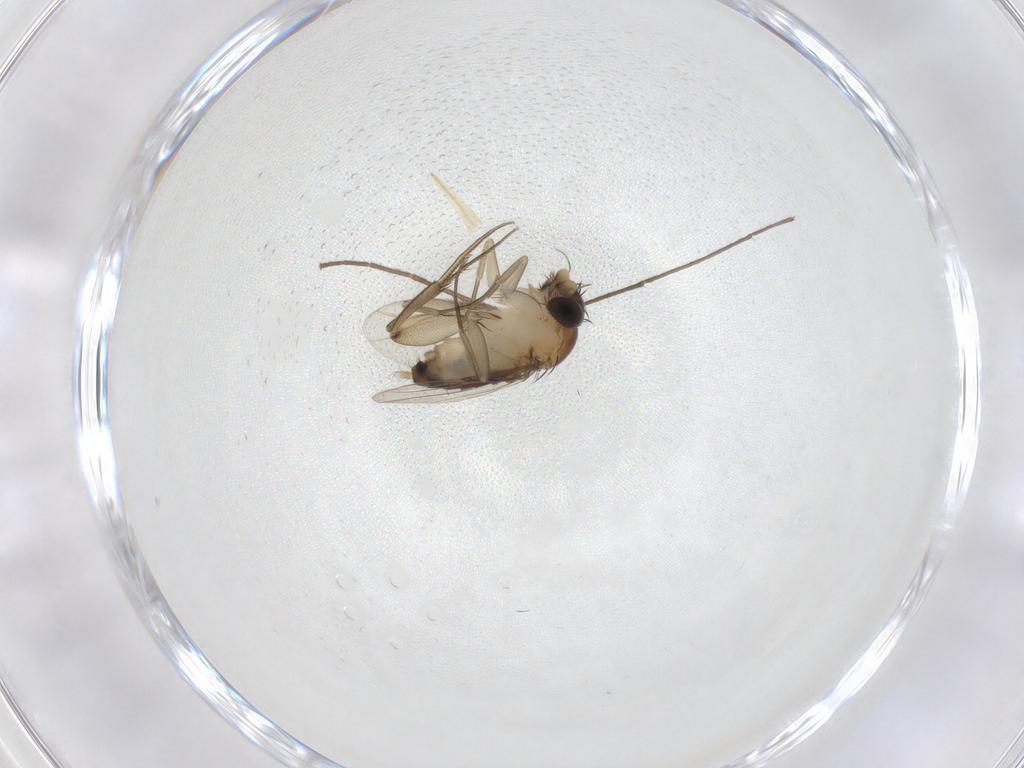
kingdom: Animalia
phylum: Arthropoda
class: Insecta
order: Diptera
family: Phoridae
